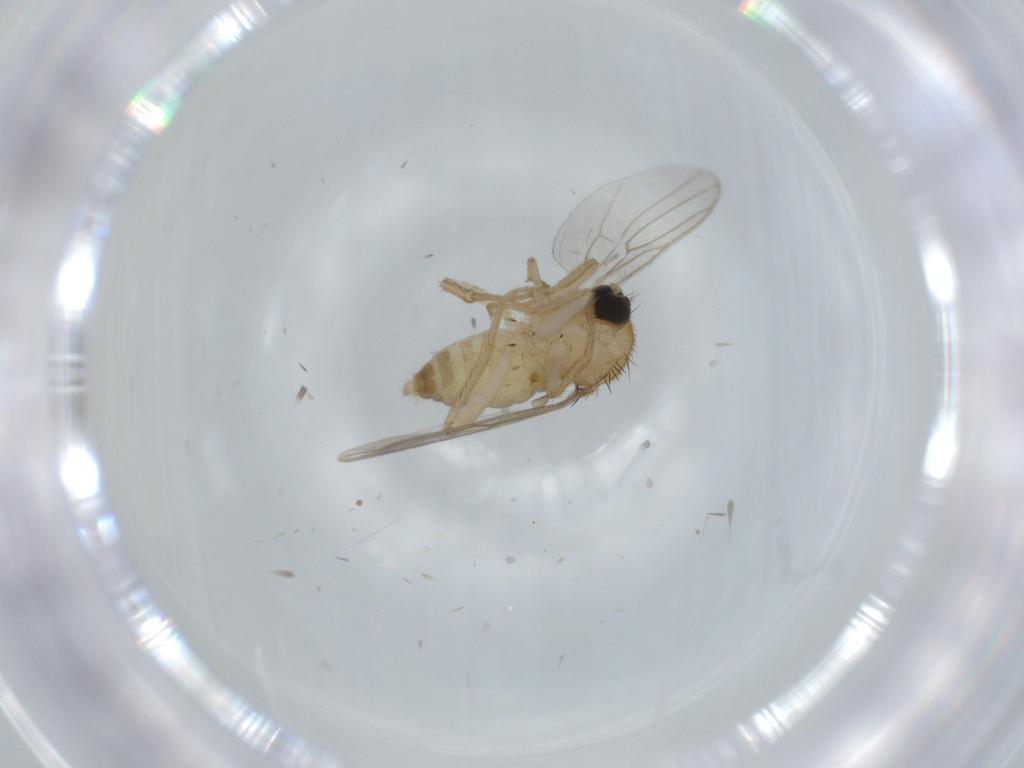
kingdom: Animalia
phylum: Arthropoda
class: Insecta
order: Diptera
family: Hybotidae
